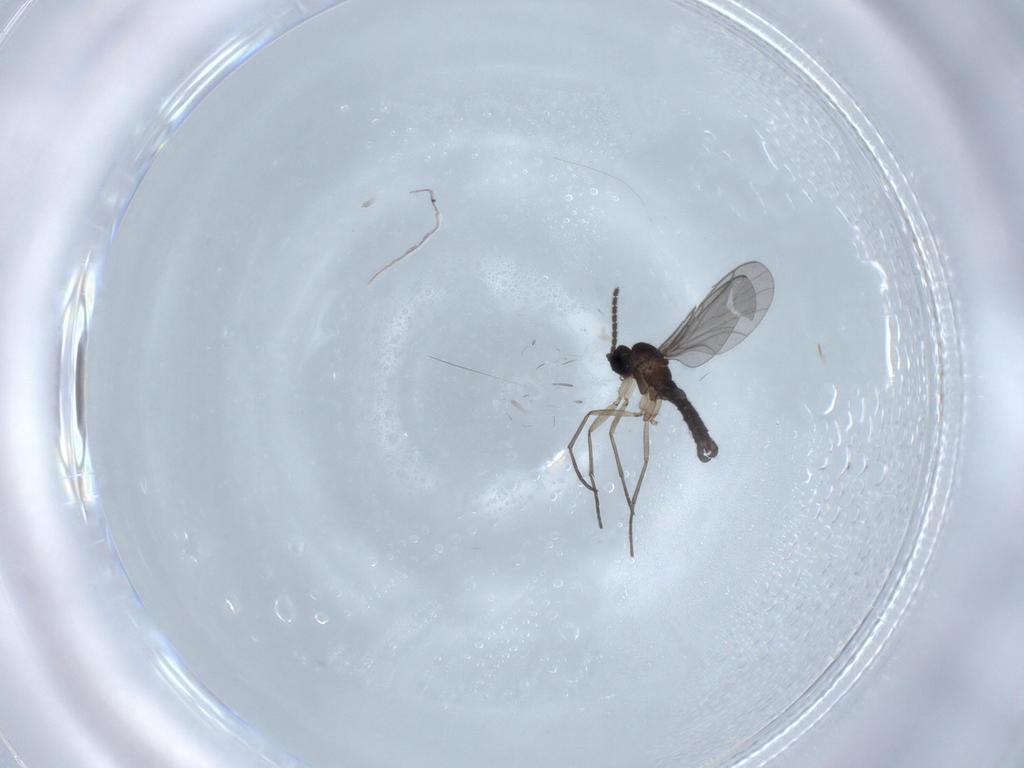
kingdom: Animalia
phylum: Arthropoda
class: Insecta
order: Diptera
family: Sciaridae
